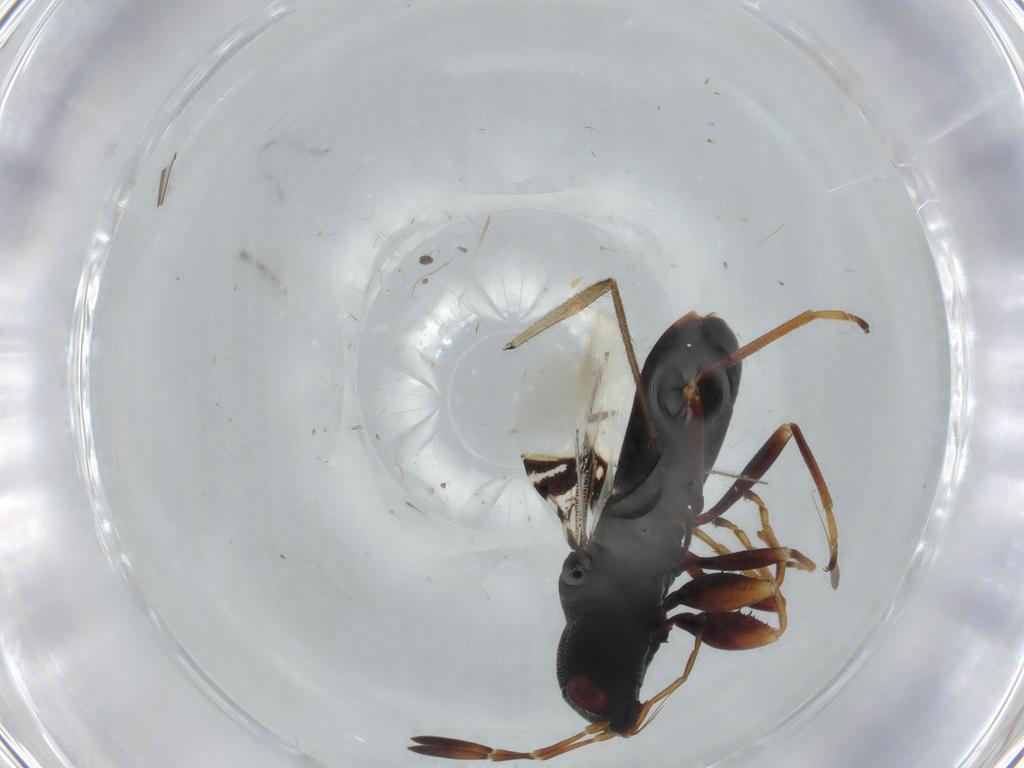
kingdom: Animalia
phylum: Arthropoda
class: Insecta
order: Hemiptera
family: Rhyparochromidae
